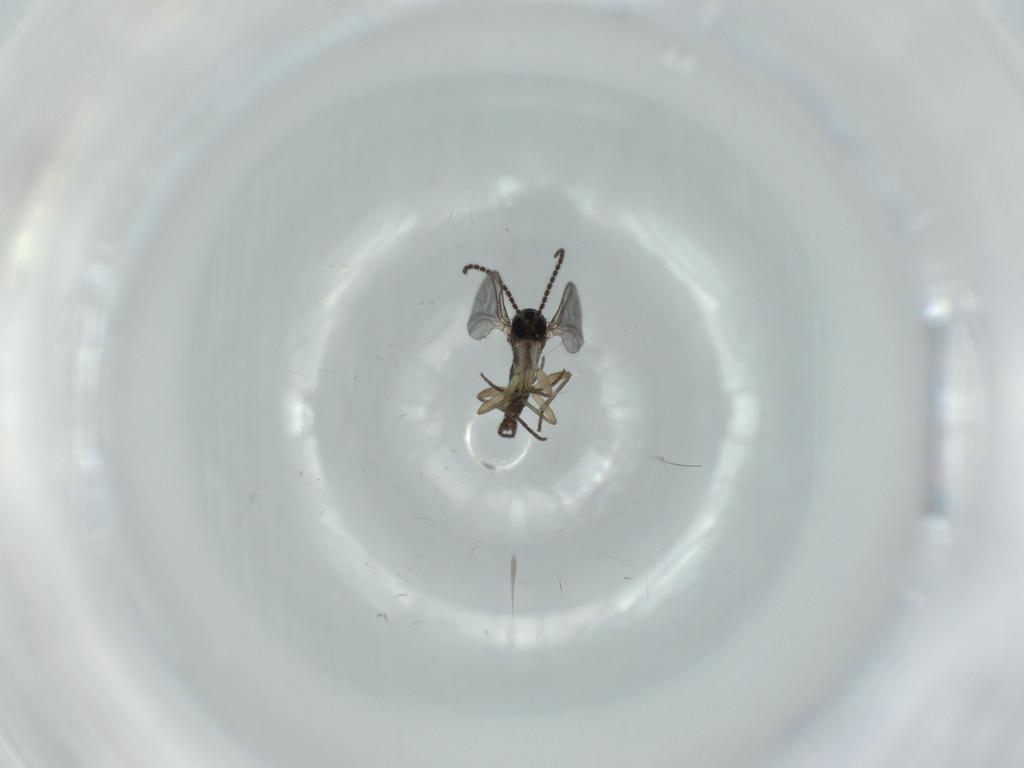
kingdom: Animalia
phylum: Arthropoda
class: Insecta
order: Diptera
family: Sciaridae
